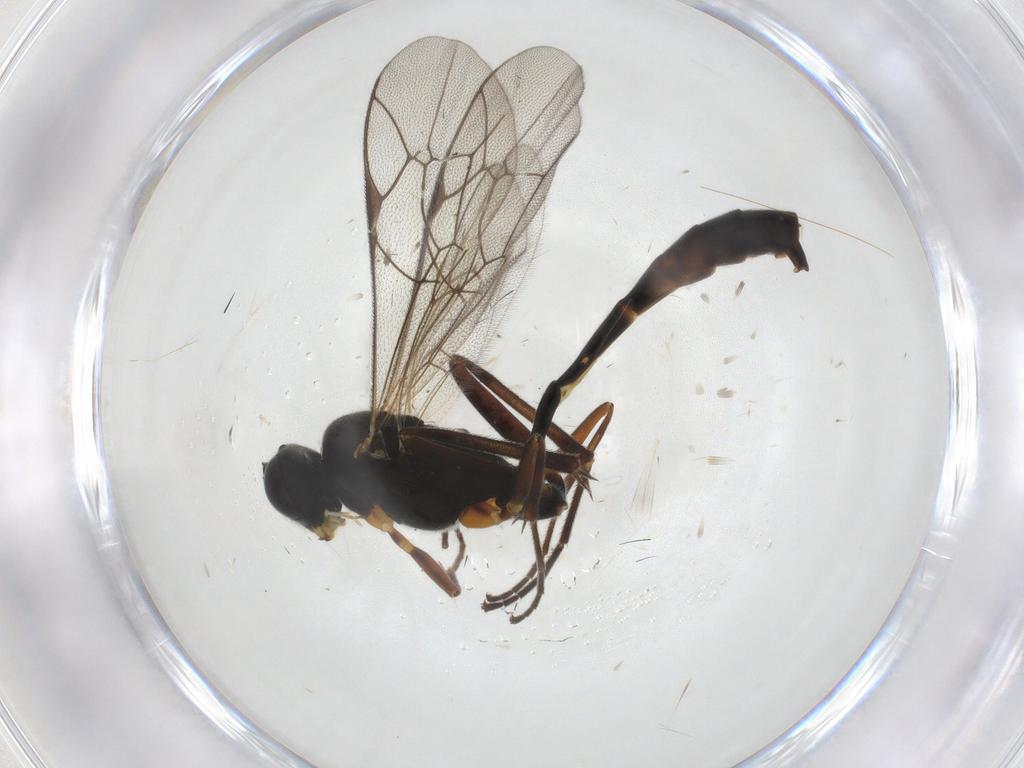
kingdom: Animalia
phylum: Arthropoda
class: Insecta
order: Hymenoptera
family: Ichneumonidae
